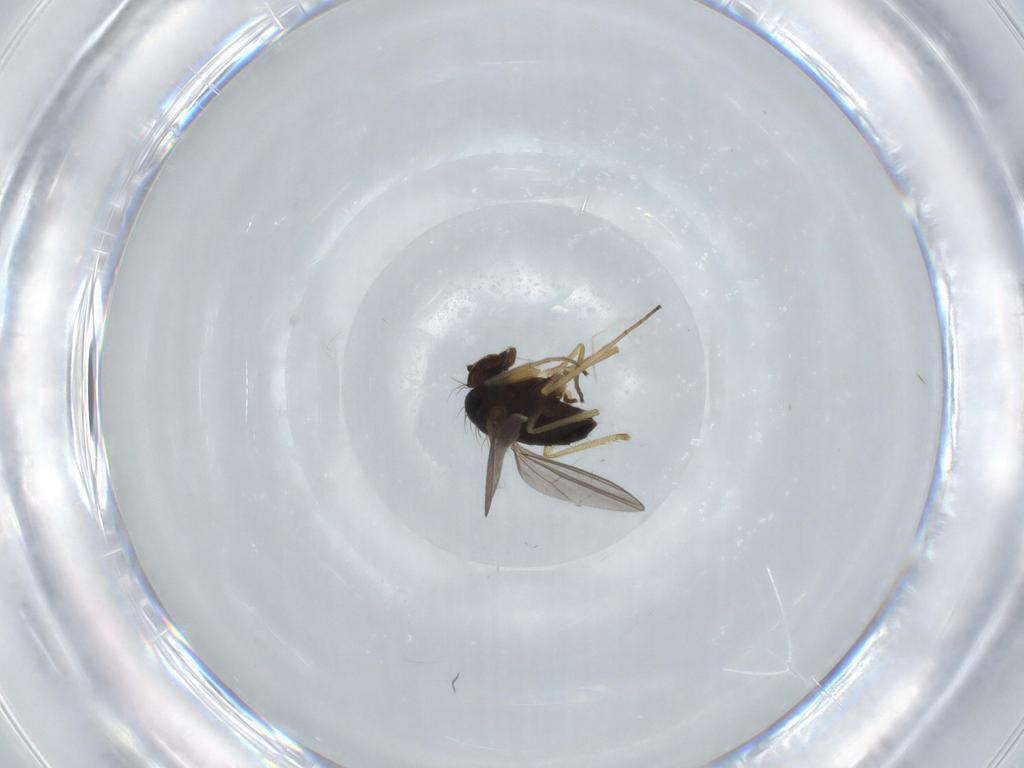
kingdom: Animalia
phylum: Arthropoda
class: Insecta
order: Diptera
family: Dolichopodidae
